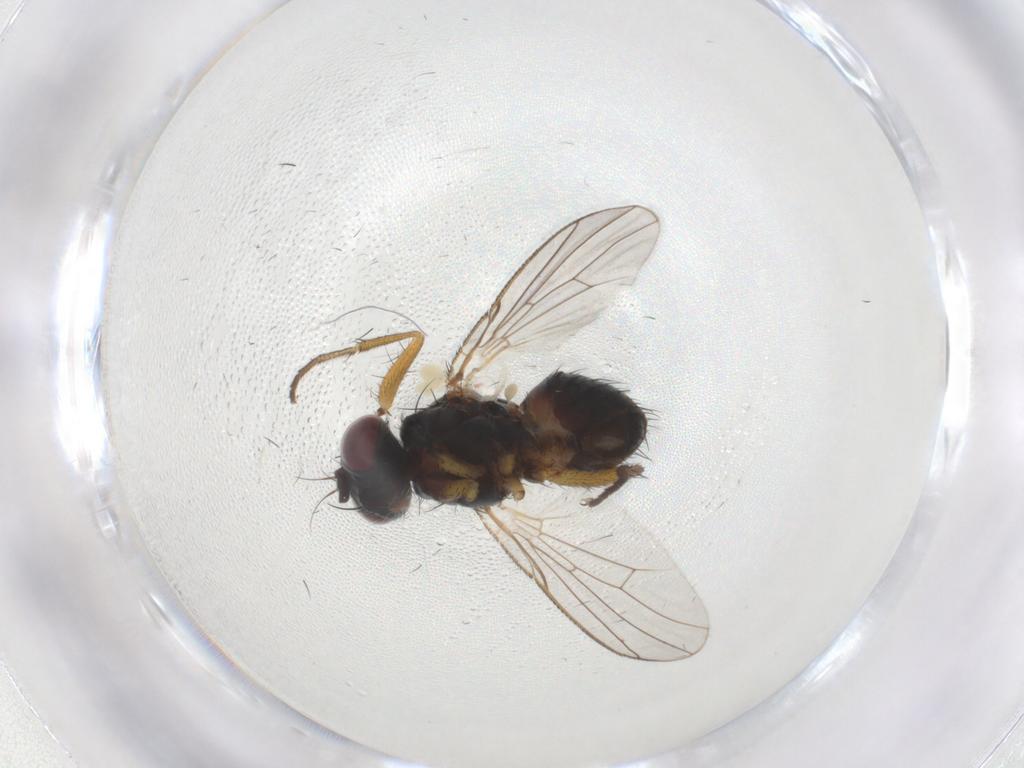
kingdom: Animalia
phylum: Arthropoda
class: Insecta
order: Diptera
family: Muscidae
